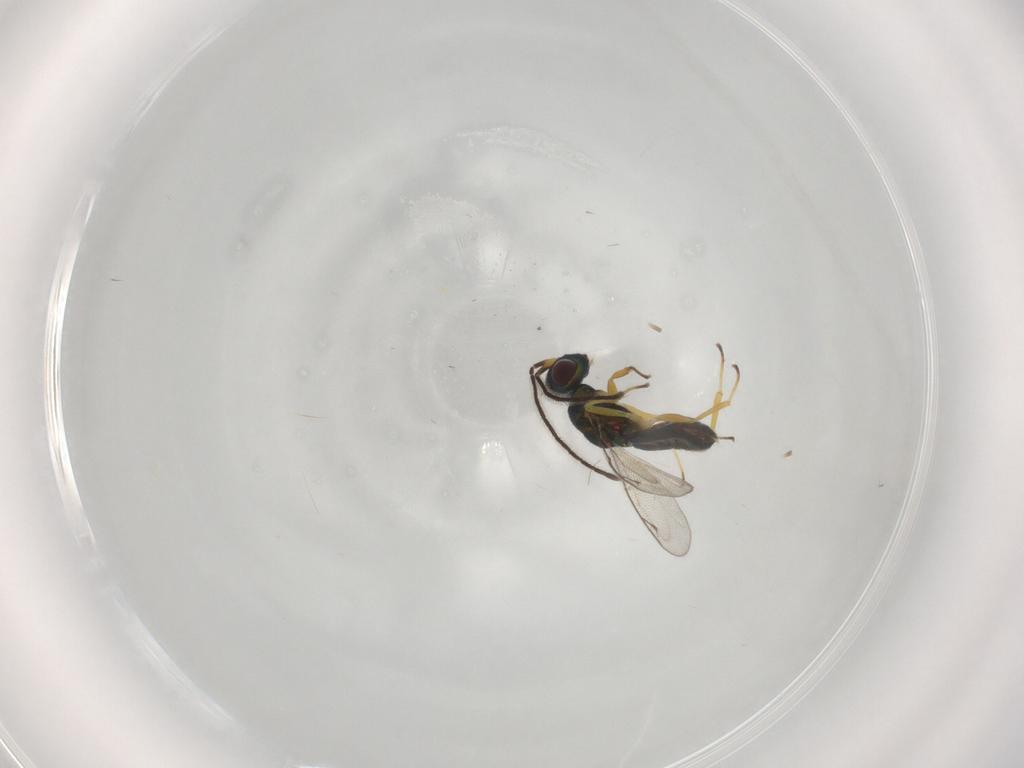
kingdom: Animalia
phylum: Arthropoda
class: Insecta
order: Hymenoptera
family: Eupelmidae
